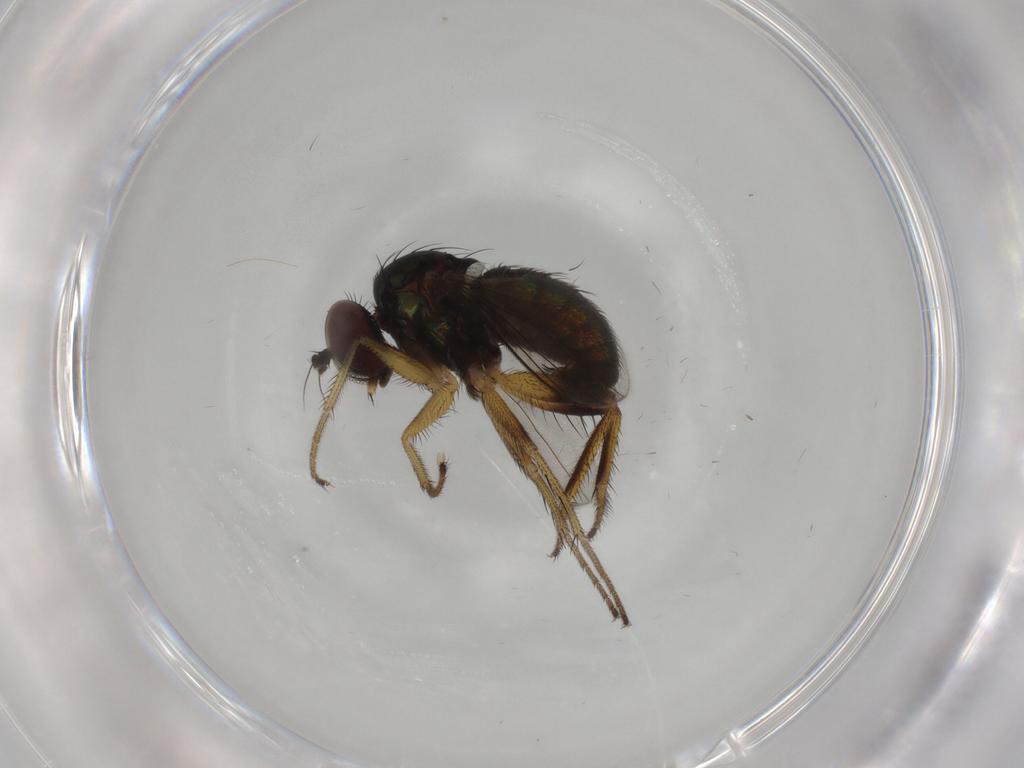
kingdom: Animalia
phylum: Arthropoda
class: Insecta
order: Diptera
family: Dolichopodidae
